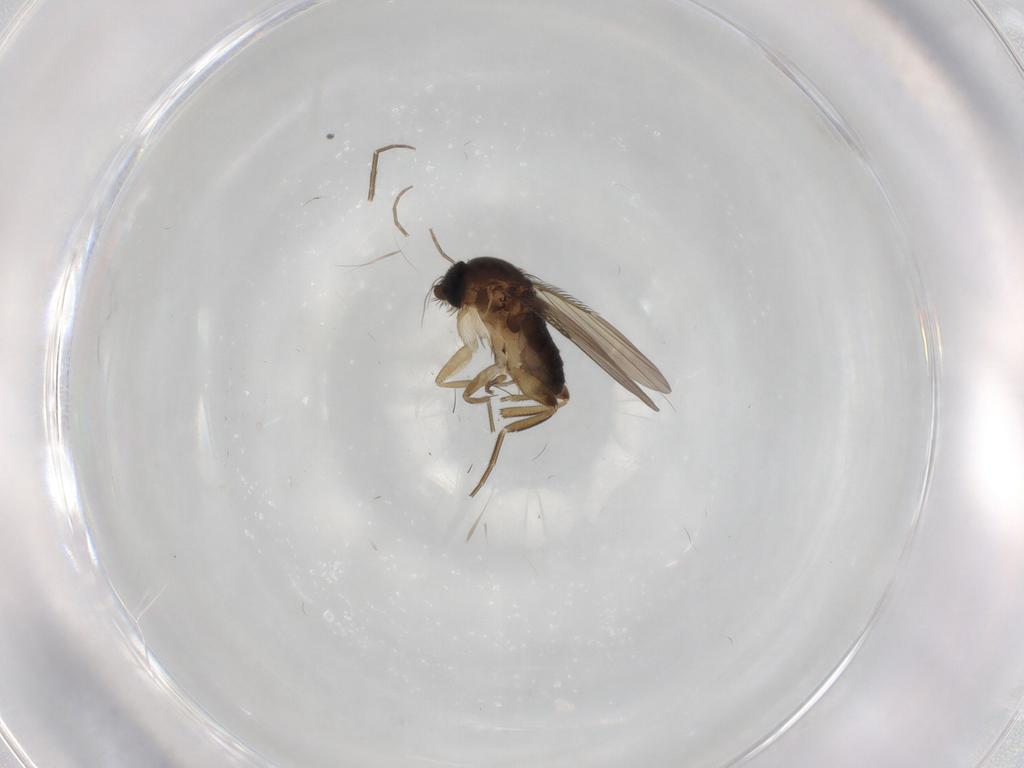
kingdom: Animalia
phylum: Arthropoda
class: Insecta
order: Diptera
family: Phoridae
